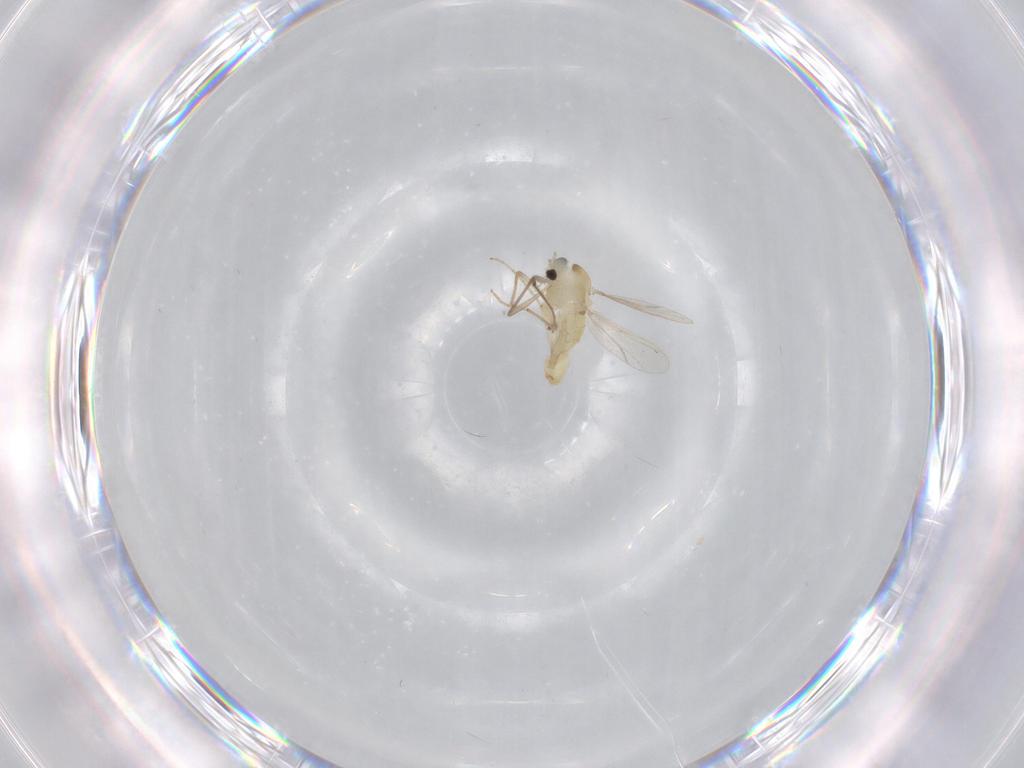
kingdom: Animalia
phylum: Arthropoda
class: Insecta
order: Diptera
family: Chironomidae
